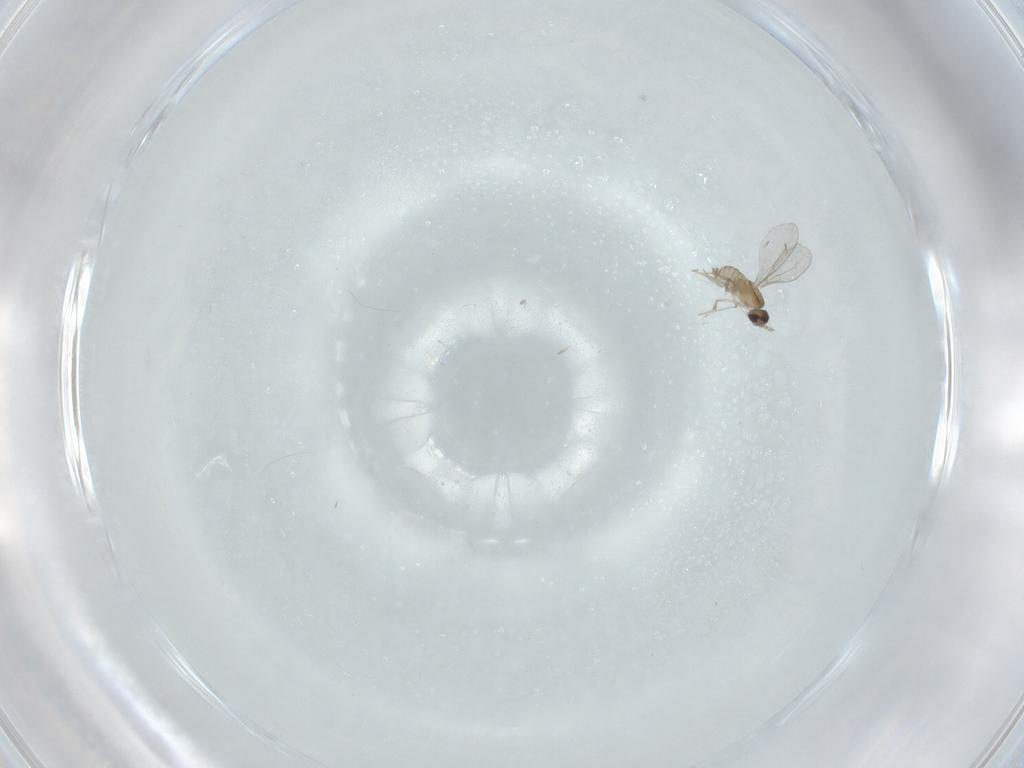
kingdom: Animalia
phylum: Arthropoda
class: Insecta
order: Diptera
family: Cecidomyiidae
